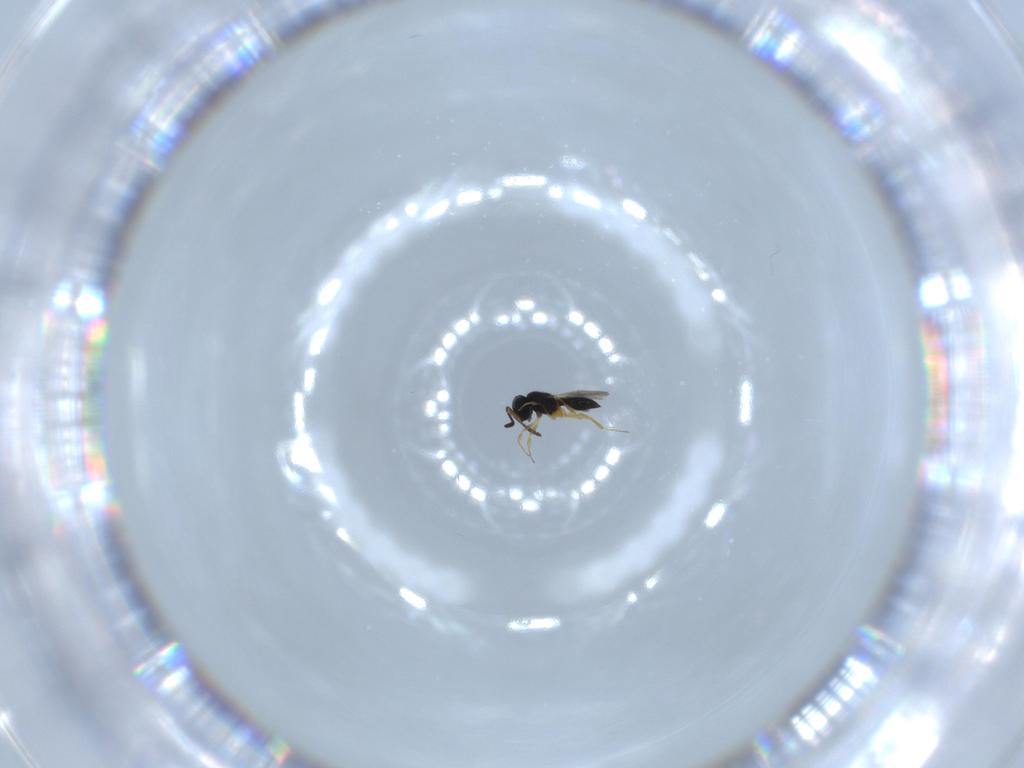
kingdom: Animalia
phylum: Arthropoda
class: Insecta
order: Hymenoptera
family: Scelionidae
